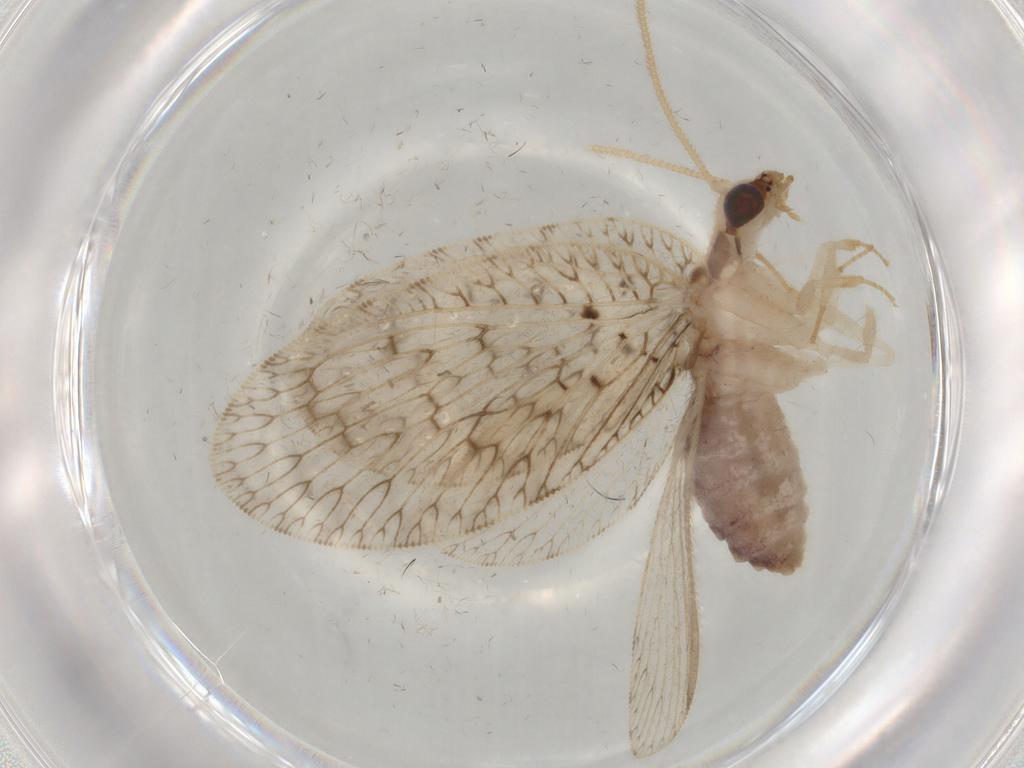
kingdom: Animalia
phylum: Arthropoda
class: Insecta
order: Neuroptera
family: Hemerobiidae
